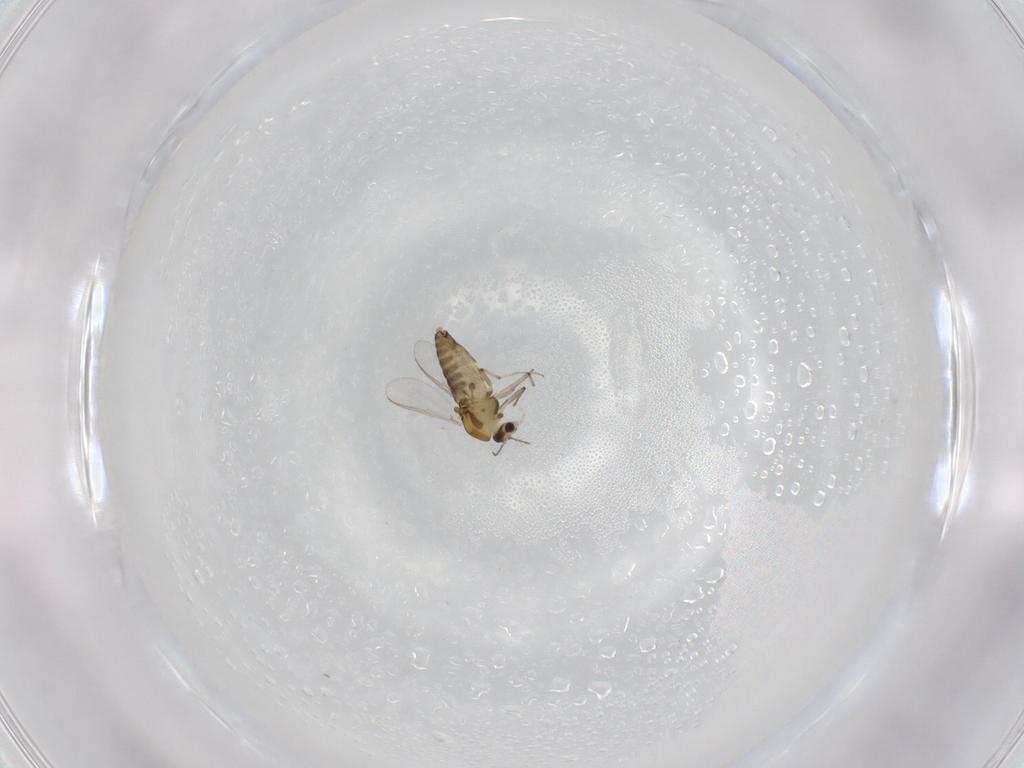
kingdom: Animalia
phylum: Arthropoda
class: Insecta
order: Diptera
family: Chironomidae
